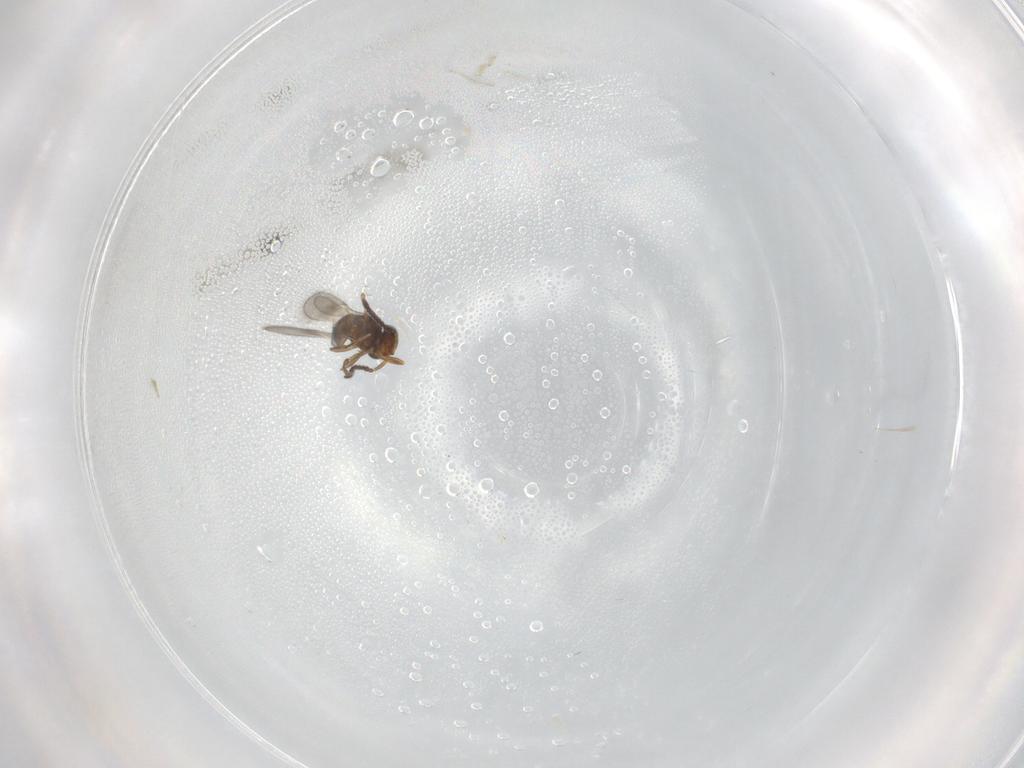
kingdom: Animalia
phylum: Arthropoda
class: Insecta
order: Hymenoptera
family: Scelionidae
